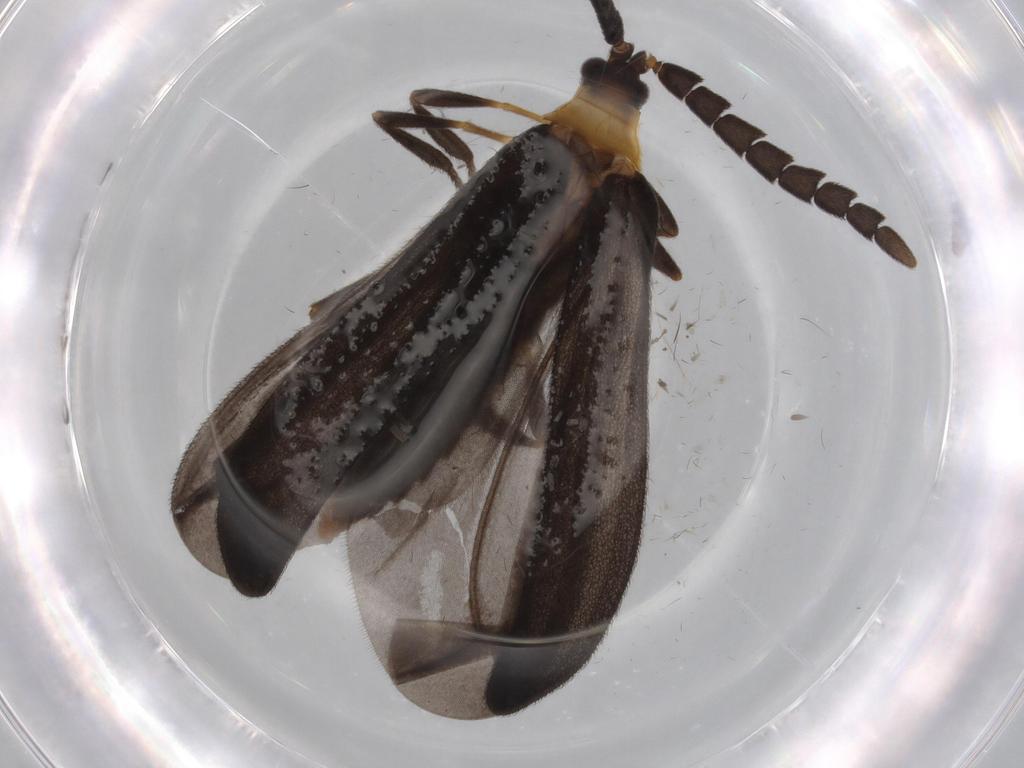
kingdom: Animalia
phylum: Arthropoda
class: Insecta
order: Coleoptera
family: Lycidae
